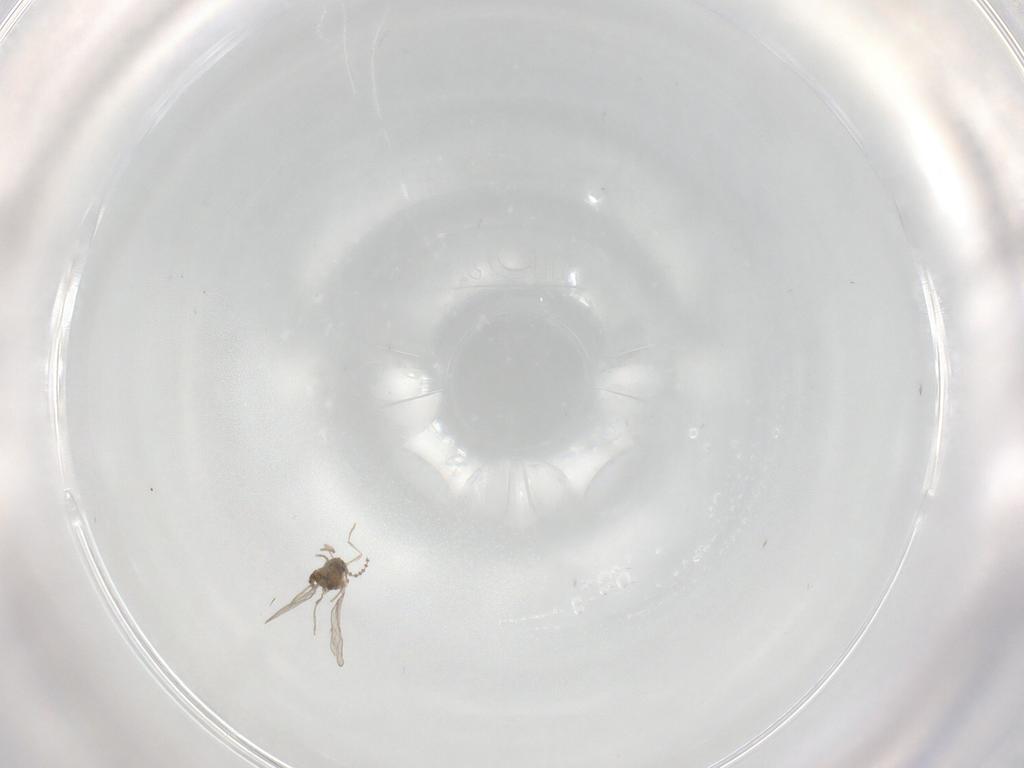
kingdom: Animalia
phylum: Arthropoda
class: Insecta
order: Diptera
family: Cecidomyiidae
